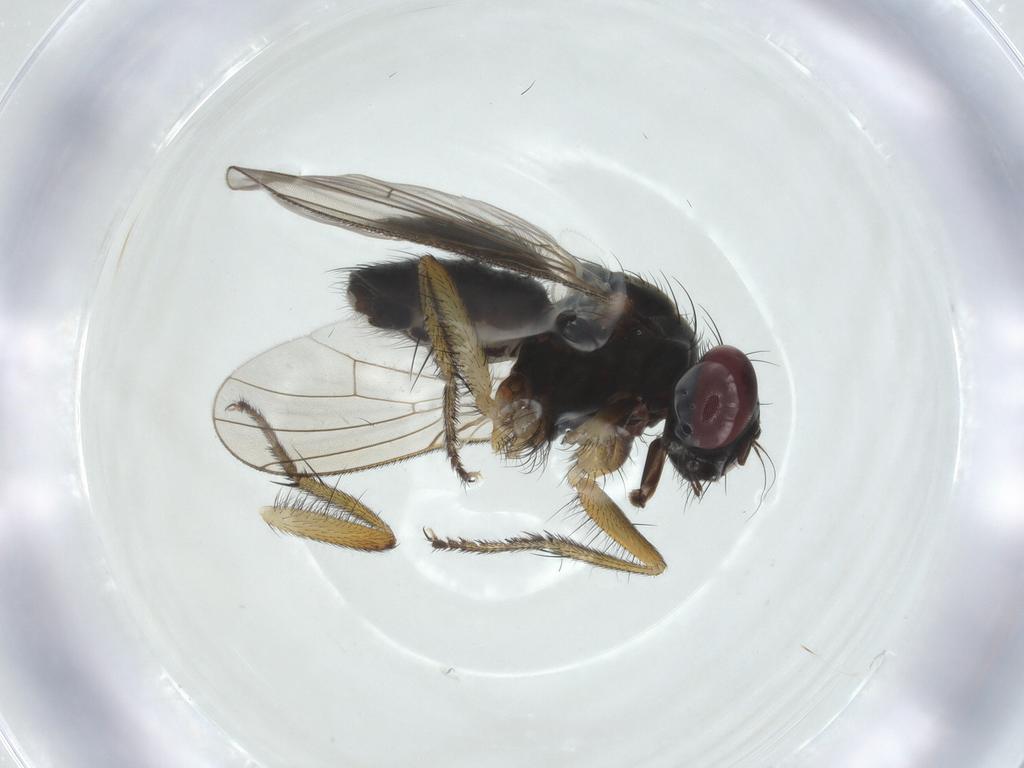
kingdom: Animalia
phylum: Arthropoda
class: Insecta
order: Diptera
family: Muscidae
